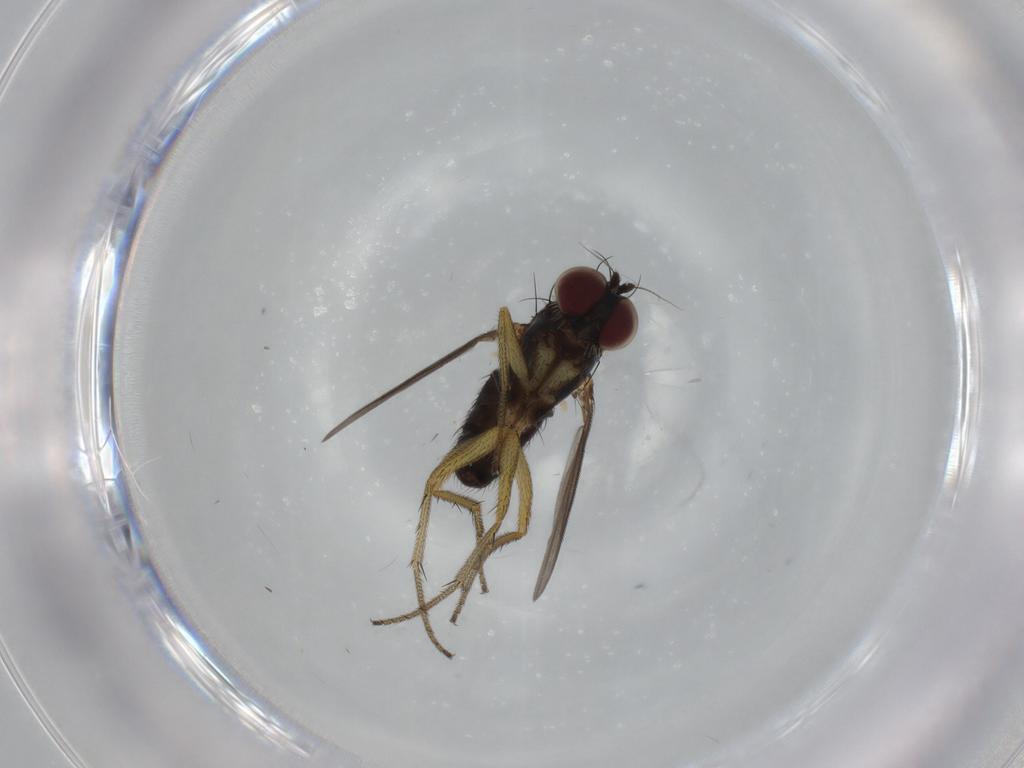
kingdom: Animalia
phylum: Arthropoda
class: Insecta
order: Diptera
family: Dolichopodidae
